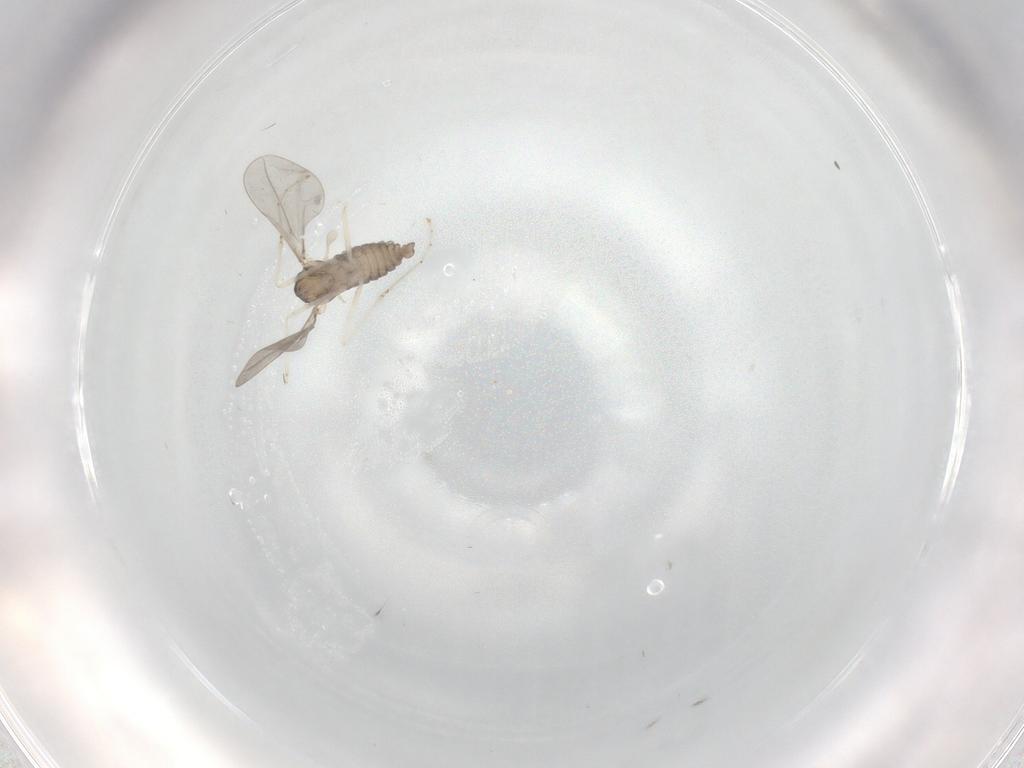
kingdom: Animalia
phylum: Arthropoda
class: Insecta
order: Diptera
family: Cecidomyiidae
